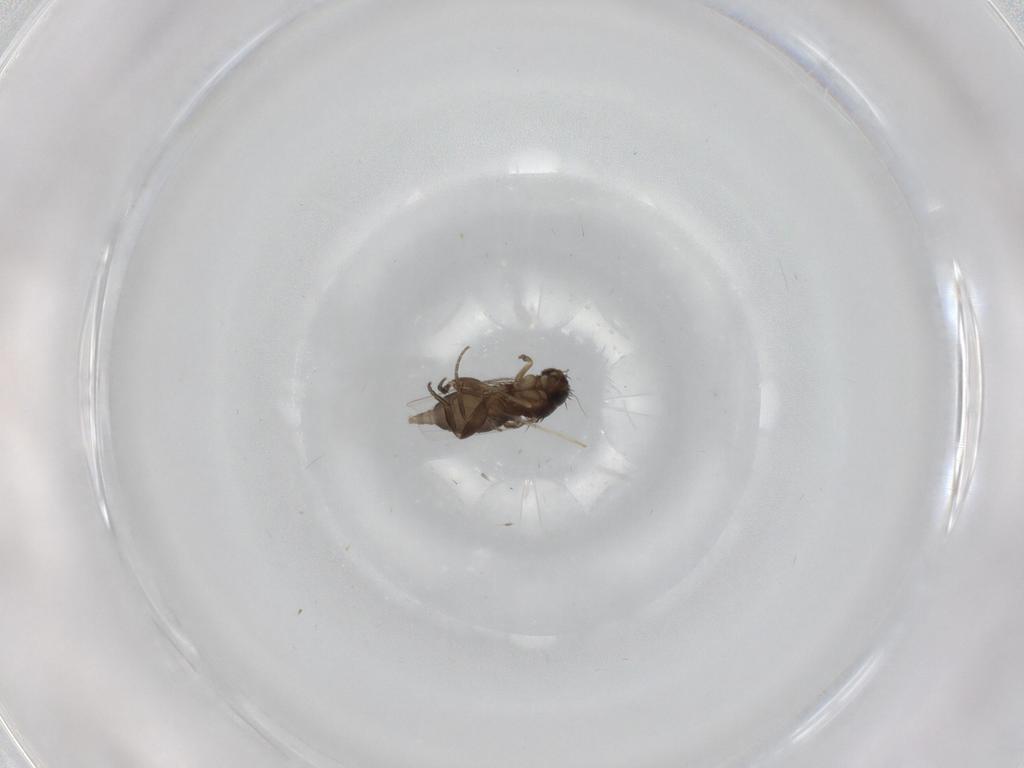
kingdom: Animalia
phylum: Arthropoda
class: Insecta
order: Diptera
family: Phoridae
